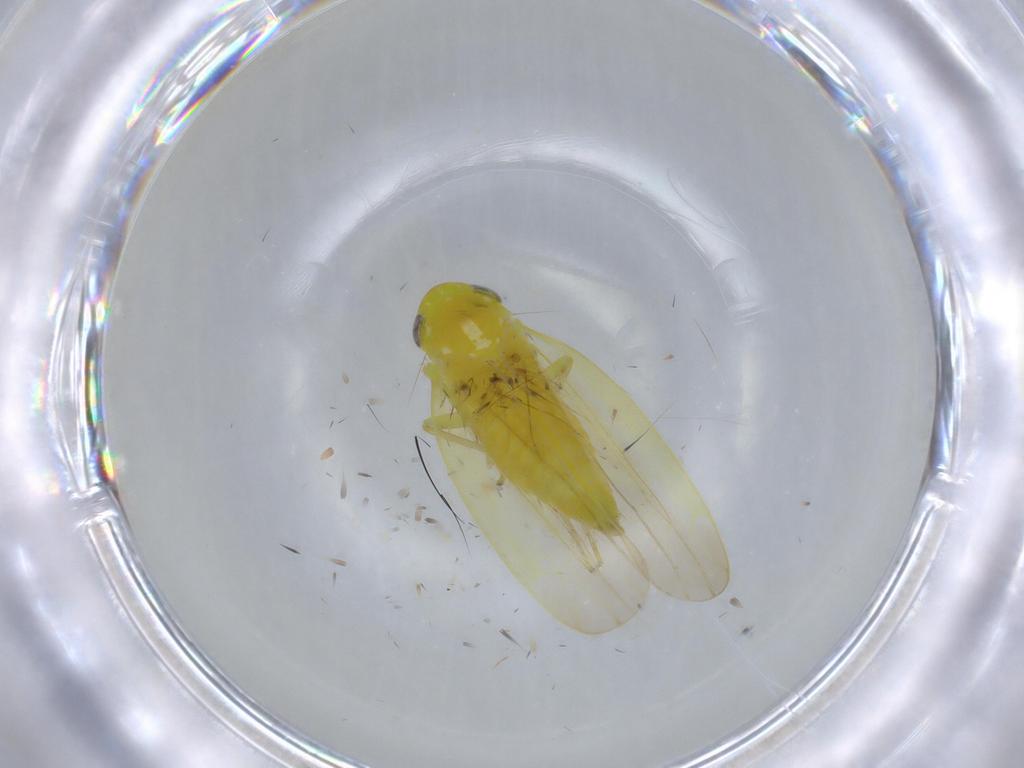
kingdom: Animalia
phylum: Arthropoda
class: Insecta
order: Hemiptera
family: Cicadellidae
